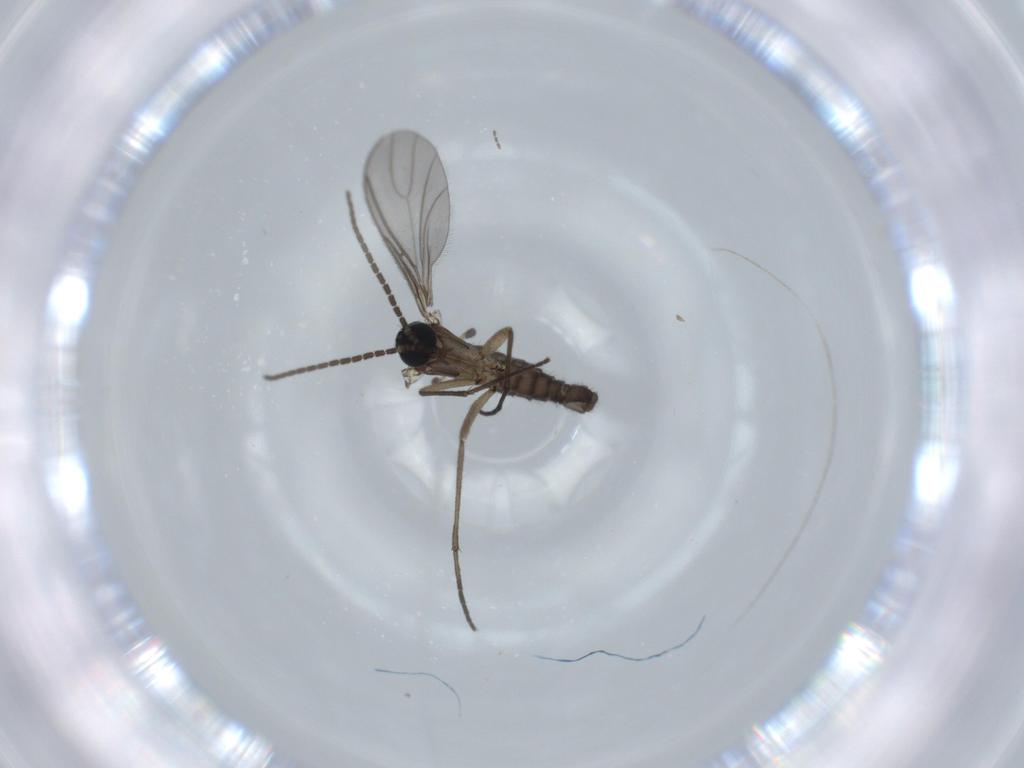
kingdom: Animalia
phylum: Arthropoda
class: Insecta
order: Diptera
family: Sciaridae
